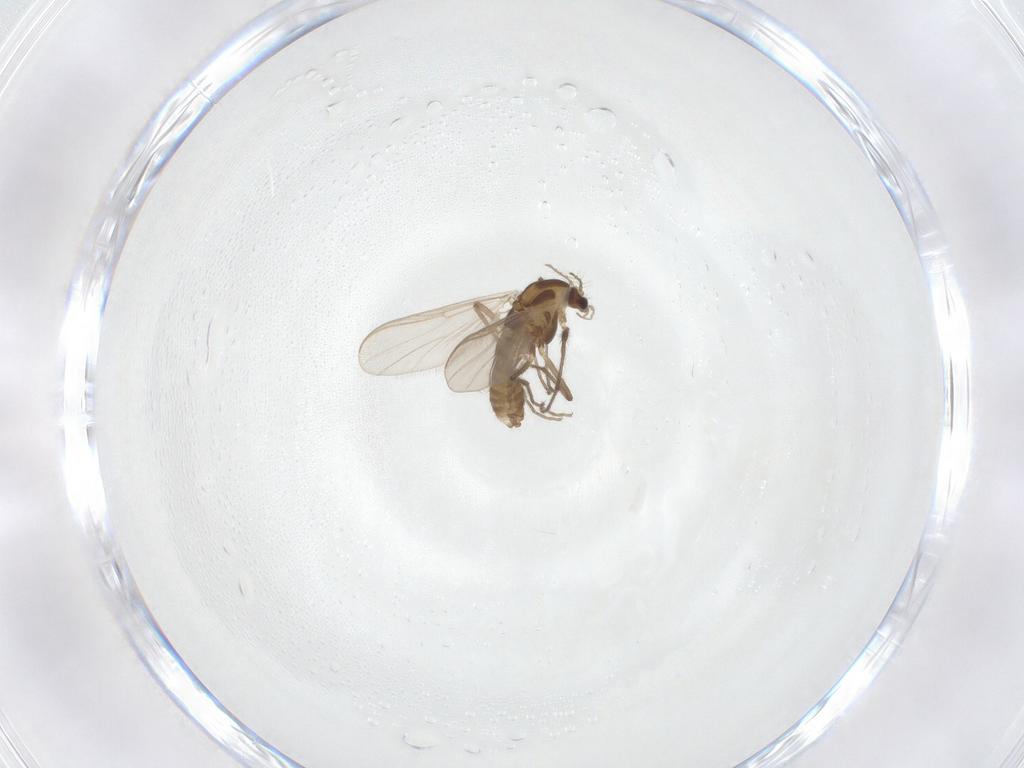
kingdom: Animalia
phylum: Arthropoda
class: Insecta
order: Diptera
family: Chironomidae
